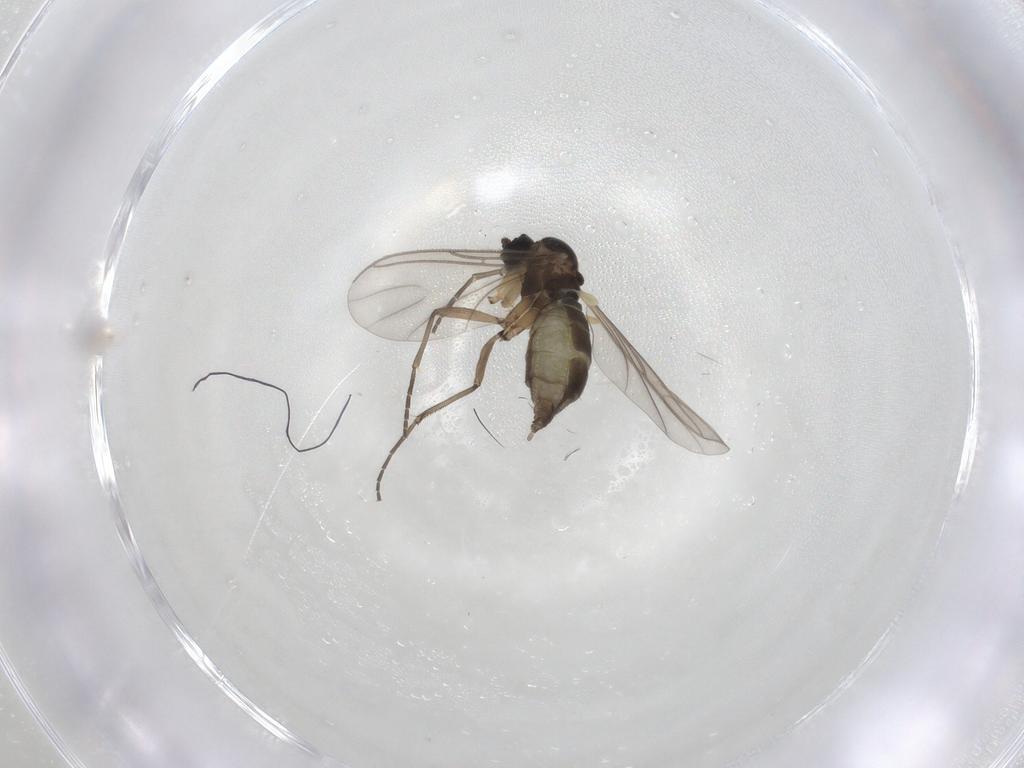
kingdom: Animalia
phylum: Arthropoda
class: Insecta
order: Diptera
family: Chironomidae
